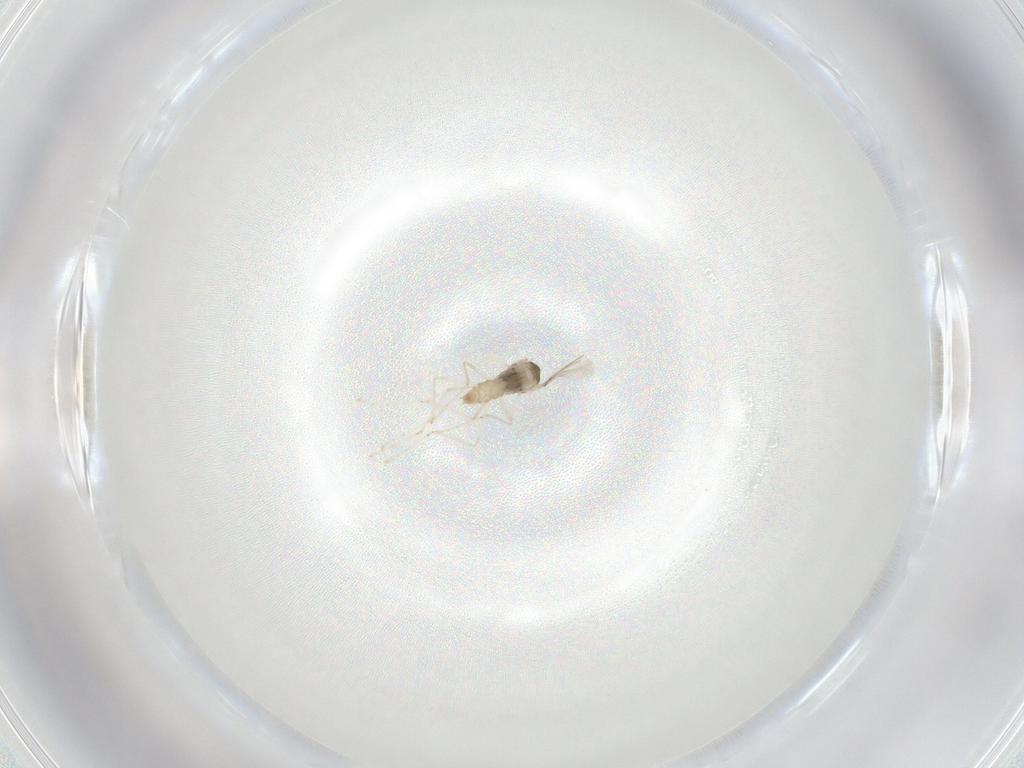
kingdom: Animalia
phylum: Arthropoda
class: Insecta
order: Diptera
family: Cecidomyiidae
